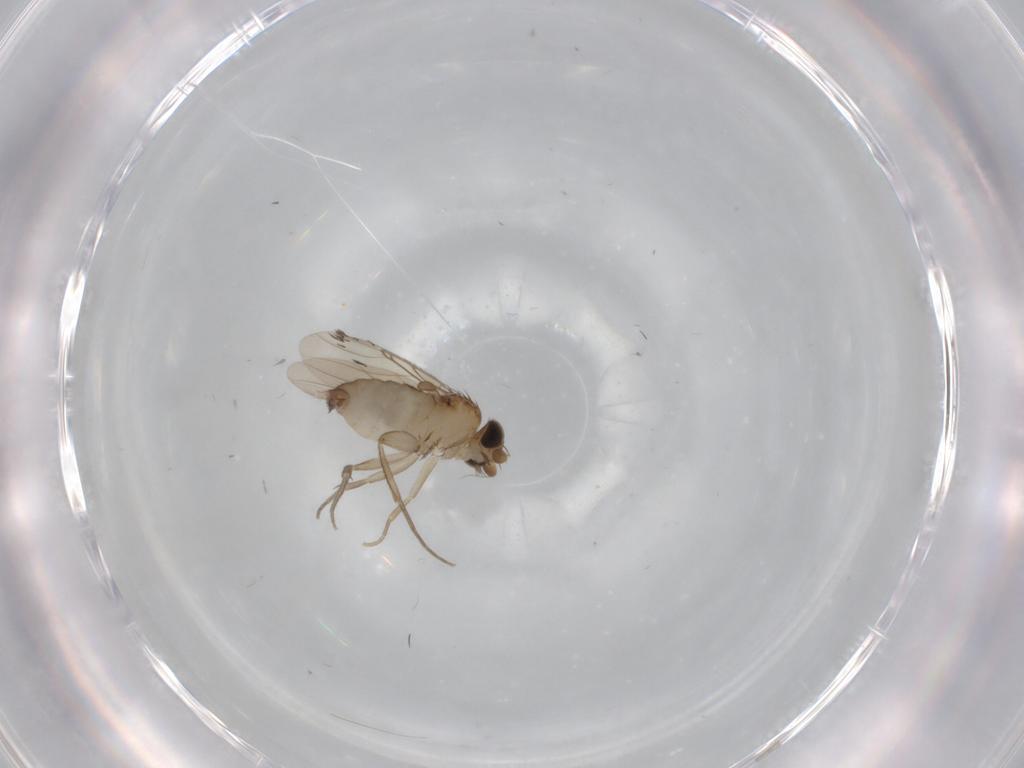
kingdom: Animalia
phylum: Arthropoda
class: Insecta
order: Diptera
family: Phoridae
